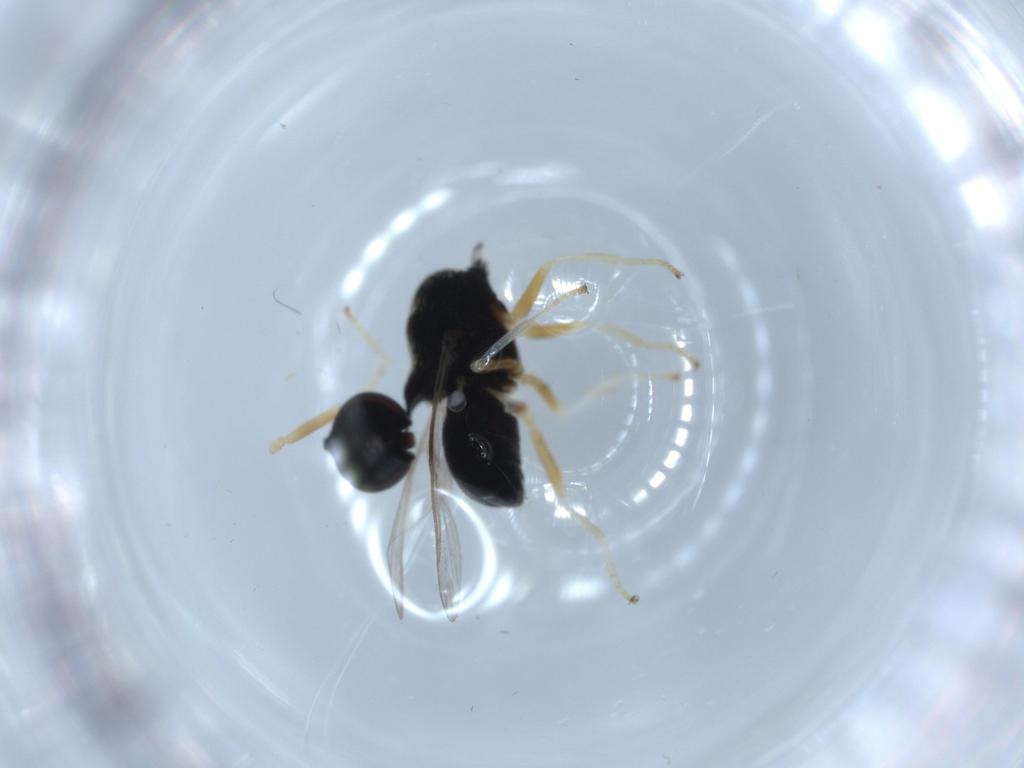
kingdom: Animalia
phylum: Arthropoda
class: Insecta
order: Diptera
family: Stratiomyidae
